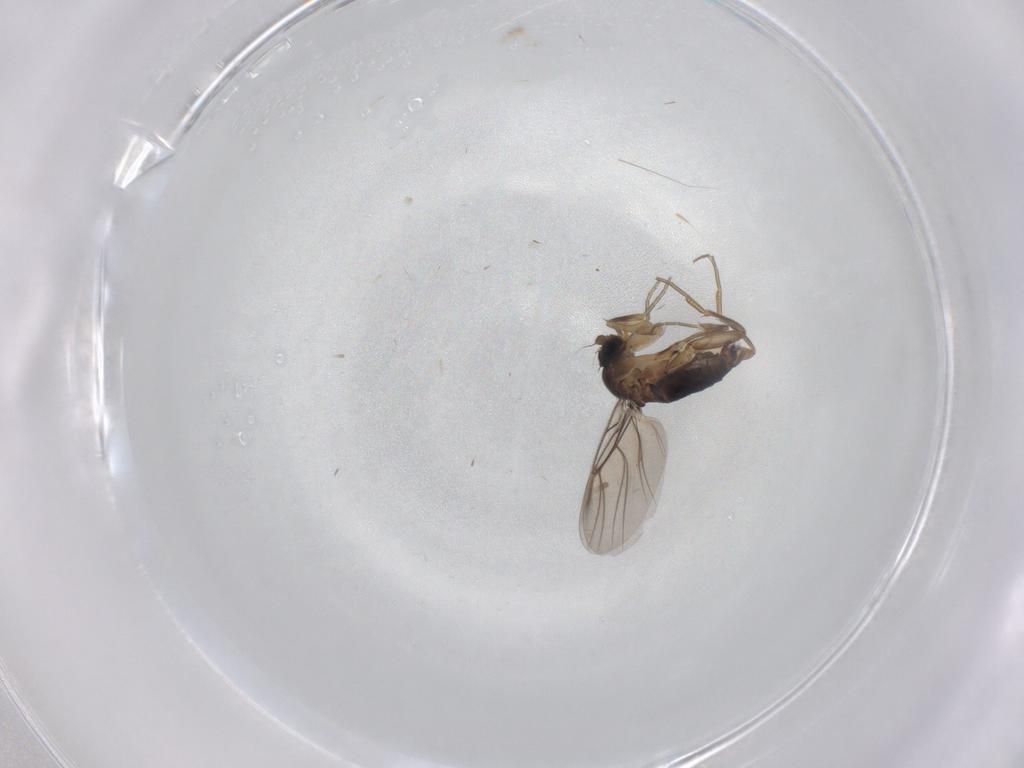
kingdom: Animalia
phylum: Arthropoda
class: Insecta
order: Diptera
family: Phoridae
